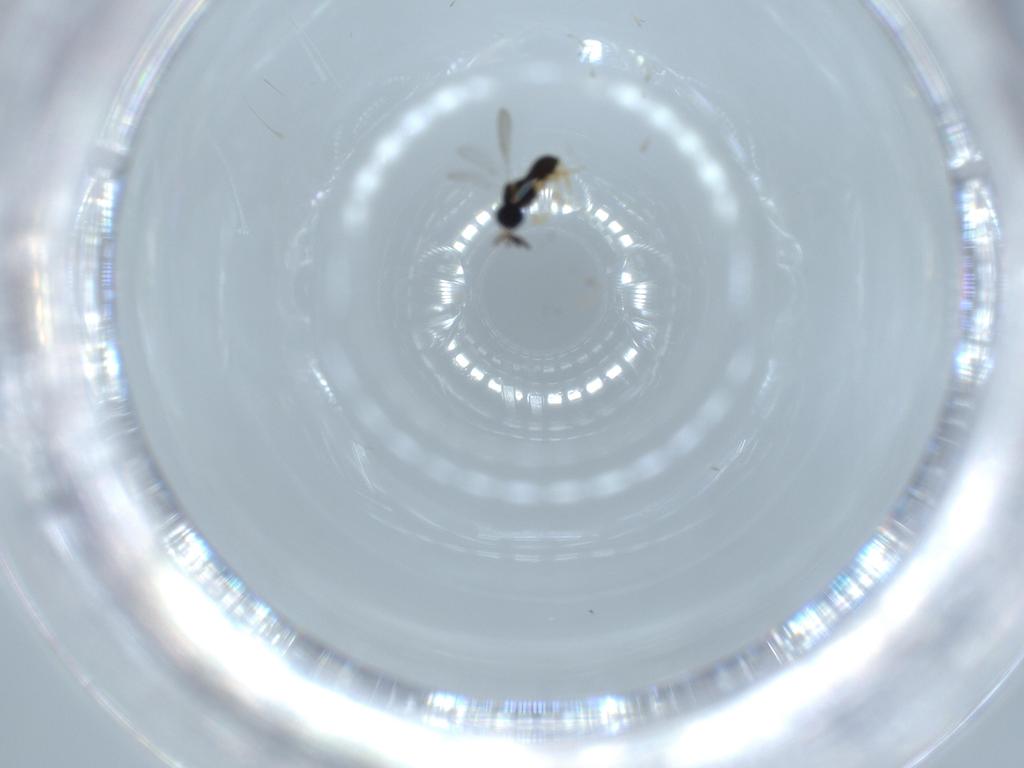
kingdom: Animalia
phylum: Arthropoda
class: Insecta
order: Hymenoptera
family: Scelionidae
